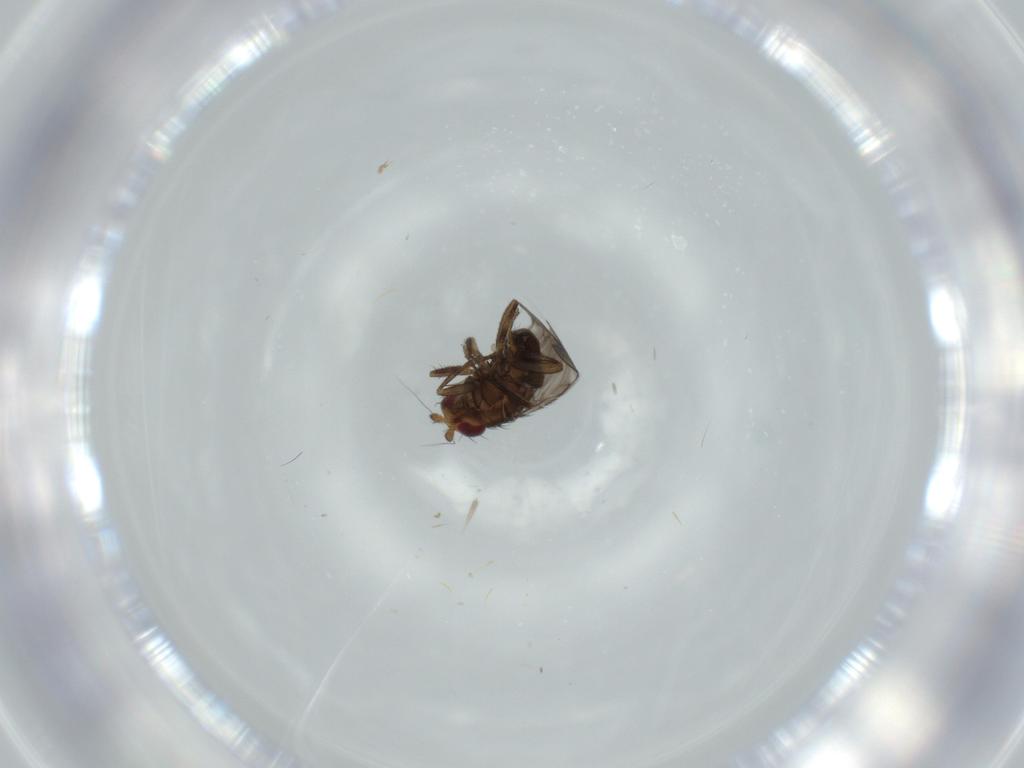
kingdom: Animalia
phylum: Arthropoda
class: Insecta
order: Diptera
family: Sphaeroceridae
